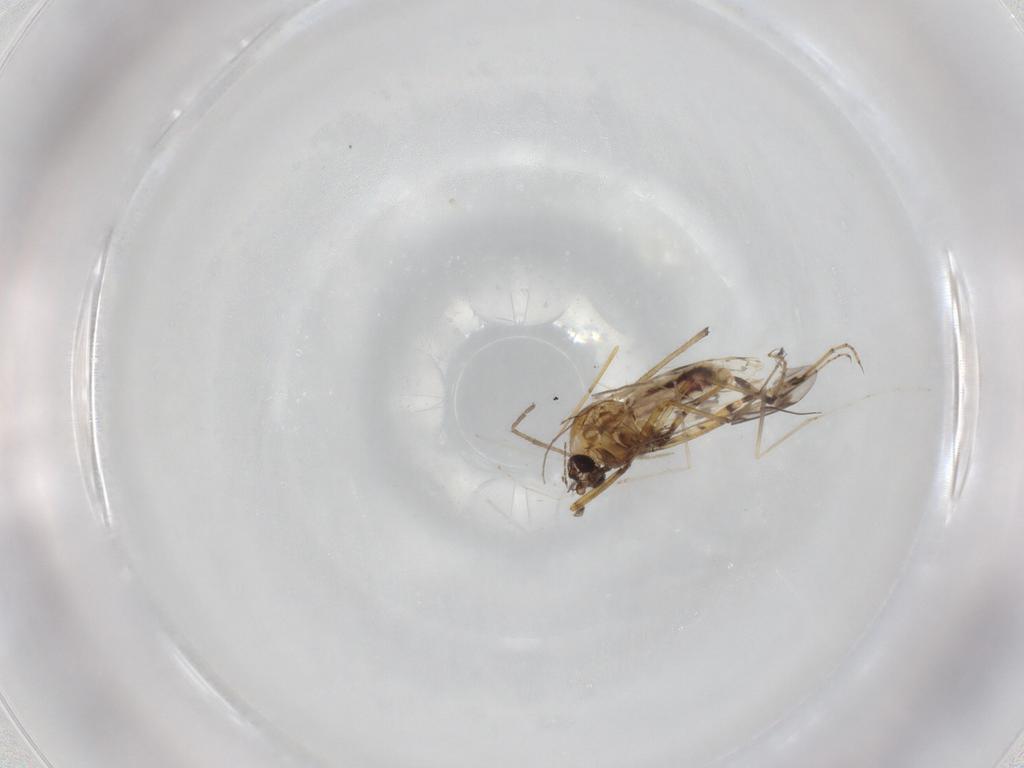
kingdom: Animalia
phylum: Arthropoda
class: Insecta
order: Diptera
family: Ceratopogonidae
